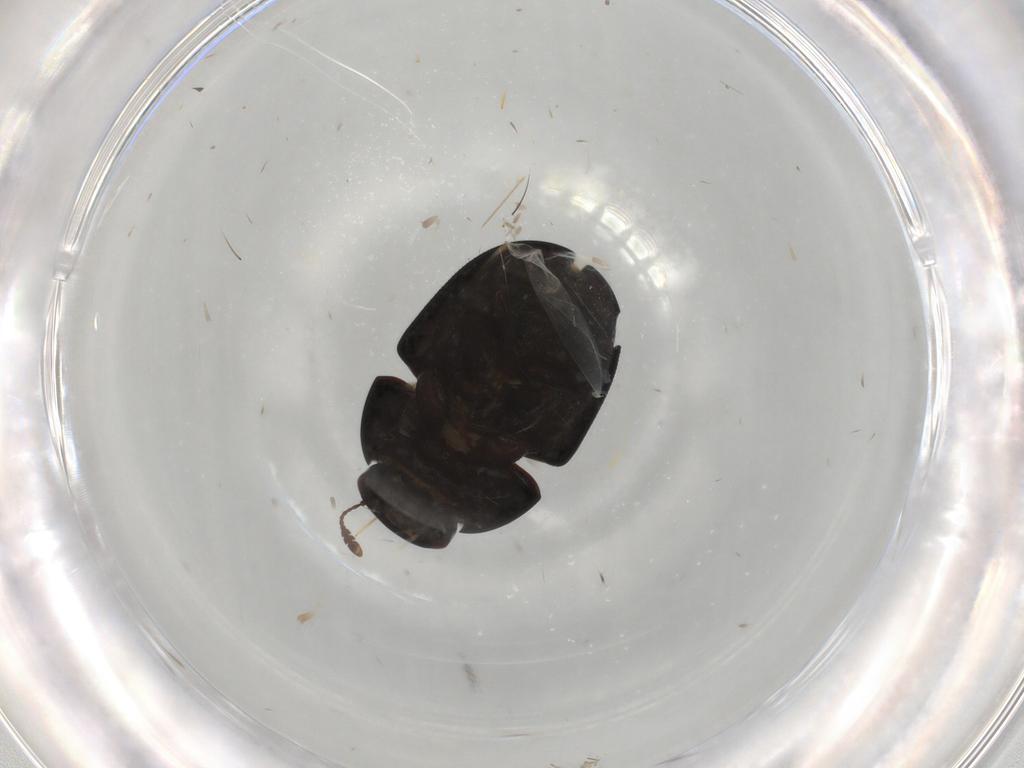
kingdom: Animalia
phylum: Arthropoda
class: Insecta
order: Coleoptera
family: Phalacridae
